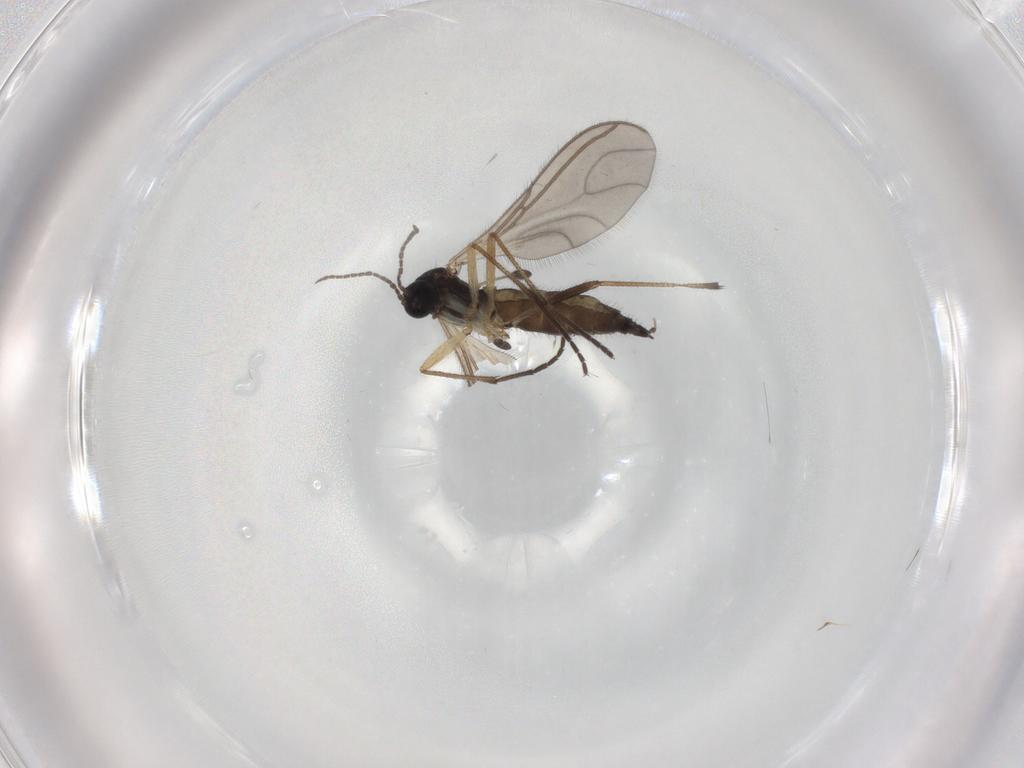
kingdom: Animalia
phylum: Arthropoda
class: Insecta
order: Diptera
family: Sciaridae
